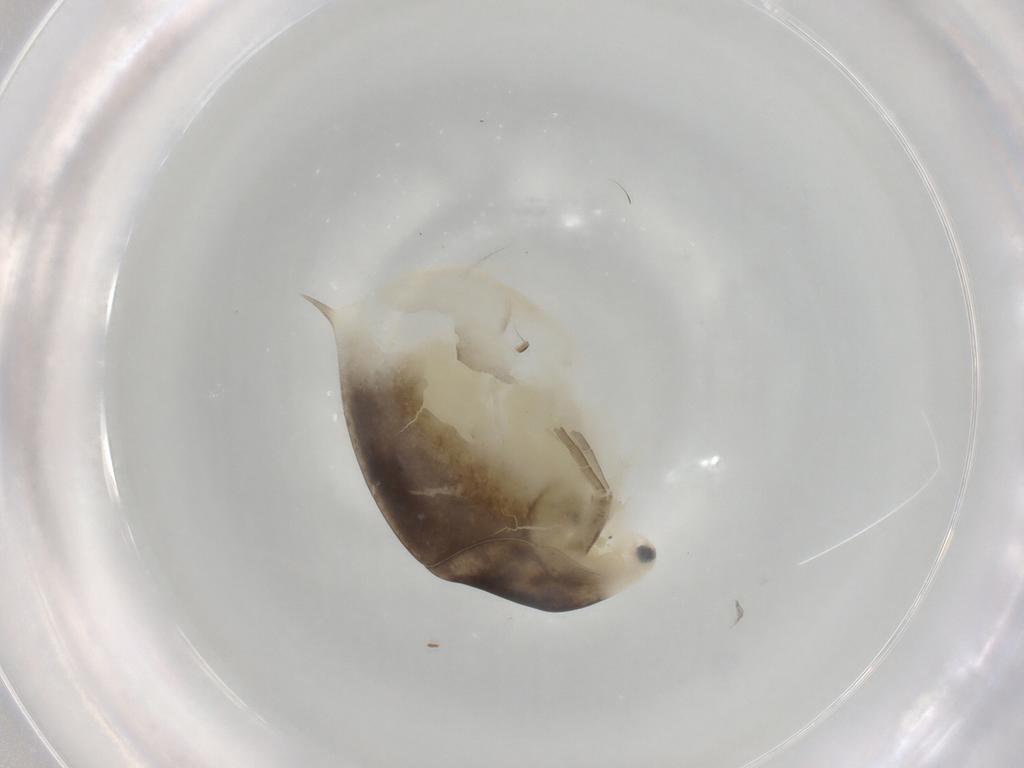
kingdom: Animalia
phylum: Arthropoda
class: Branchiopoda
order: Diplostraca
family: Daphniidae
